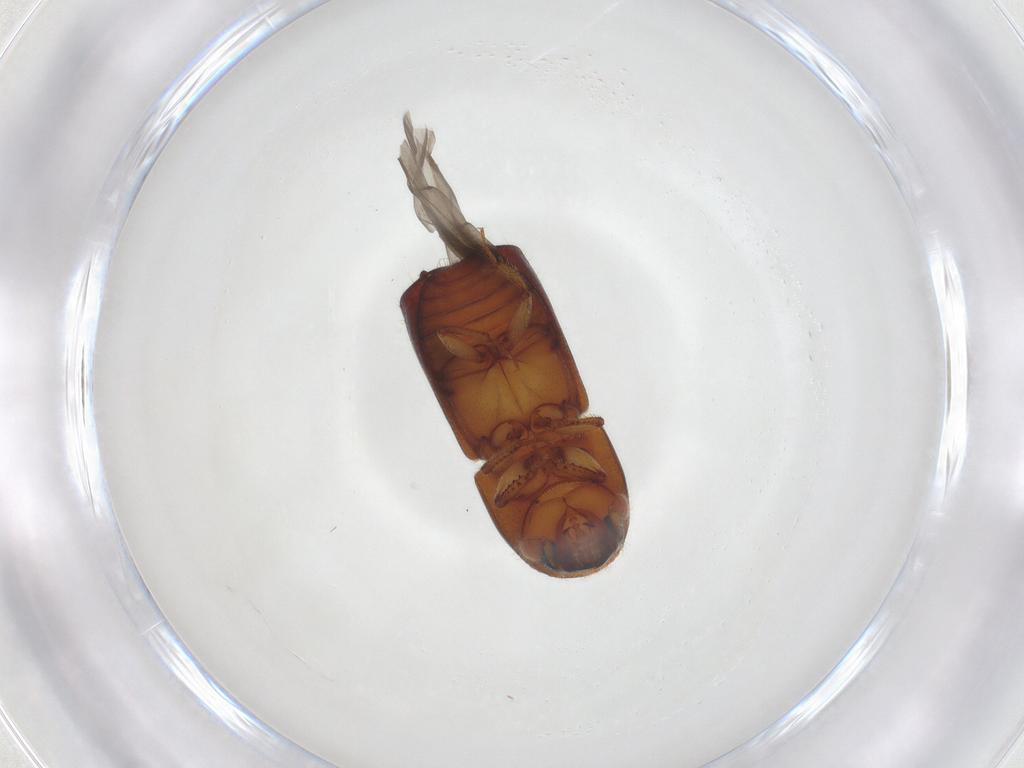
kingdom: Animalia
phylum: Arthropoda
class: Insecta
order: Coleoptera
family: Curculionidae
